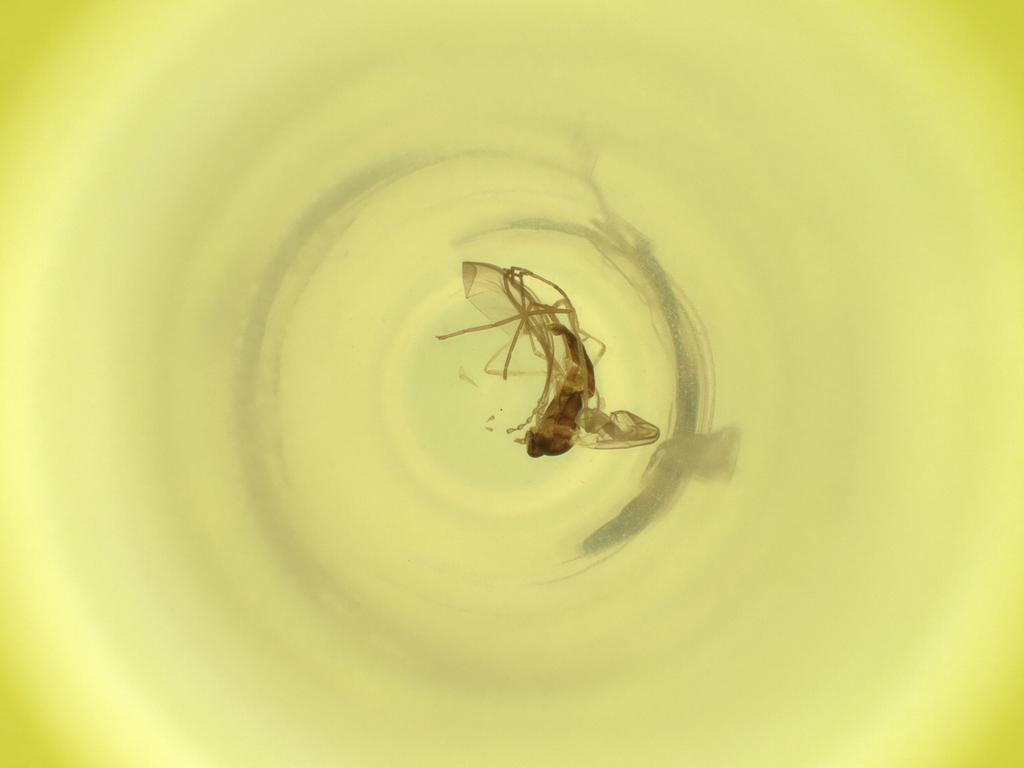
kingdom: Animalia
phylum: Arthropoda
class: Insecta
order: Diptera
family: Cecidomyiidae
